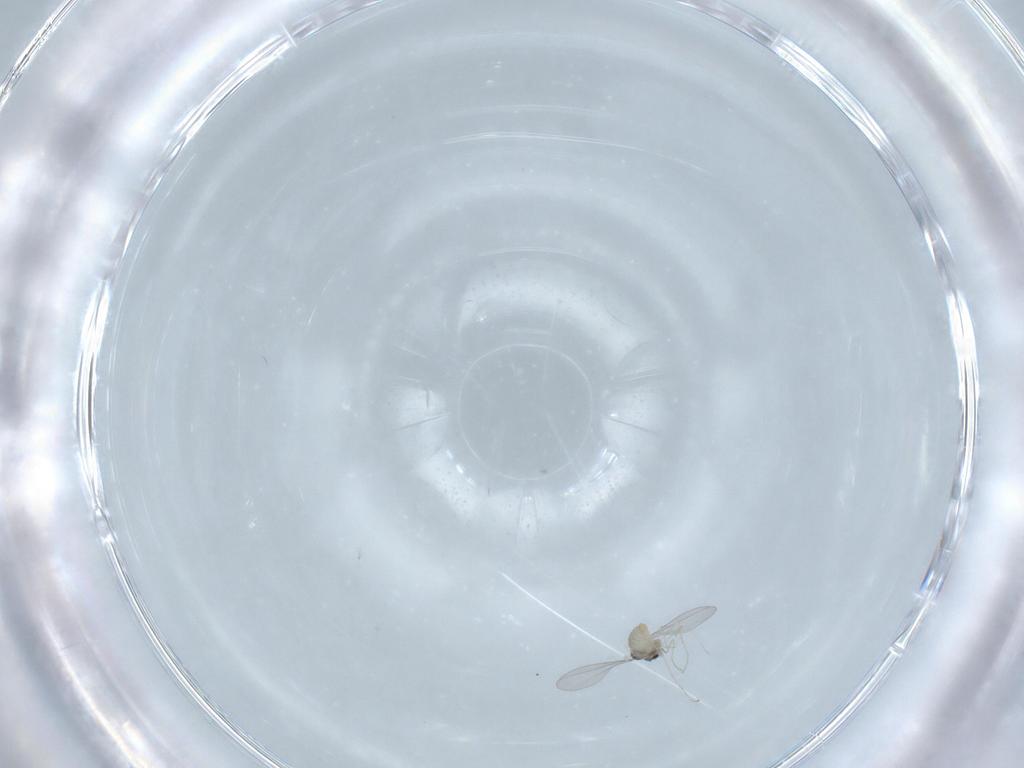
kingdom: Animalia
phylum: Arthropoda
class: Insecta
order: Diptera
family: Cecidomyiidae
